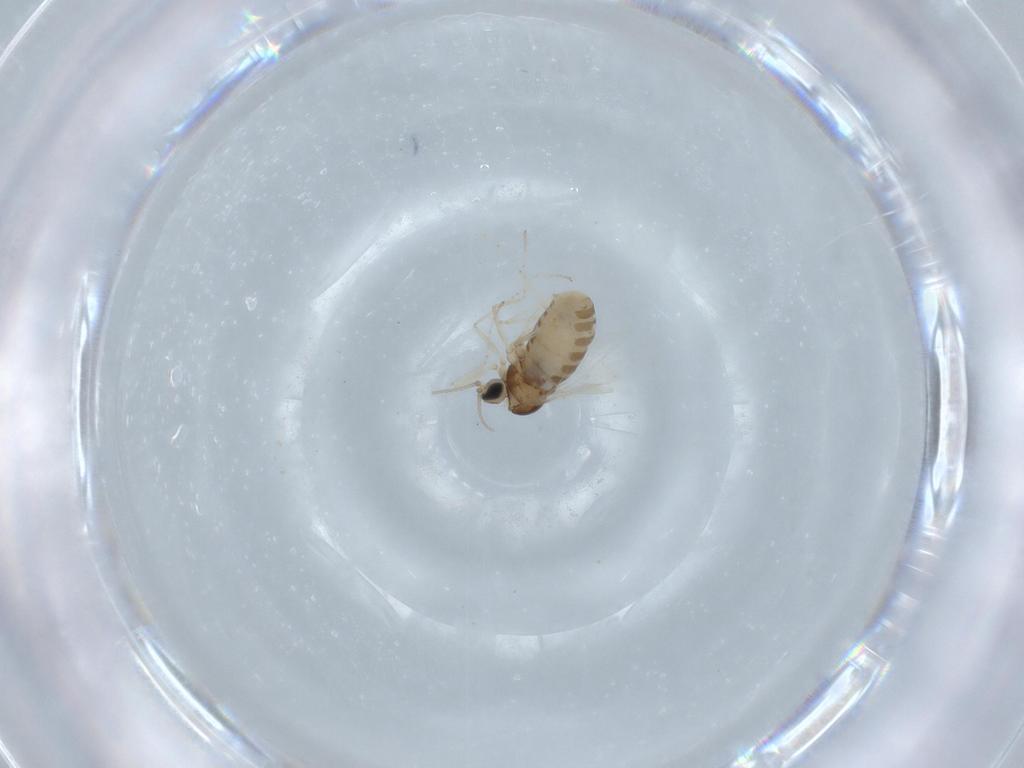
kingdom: Animalia
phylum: Arthropoda
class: Insecta
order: Diptera
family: Cecidomyiidae
